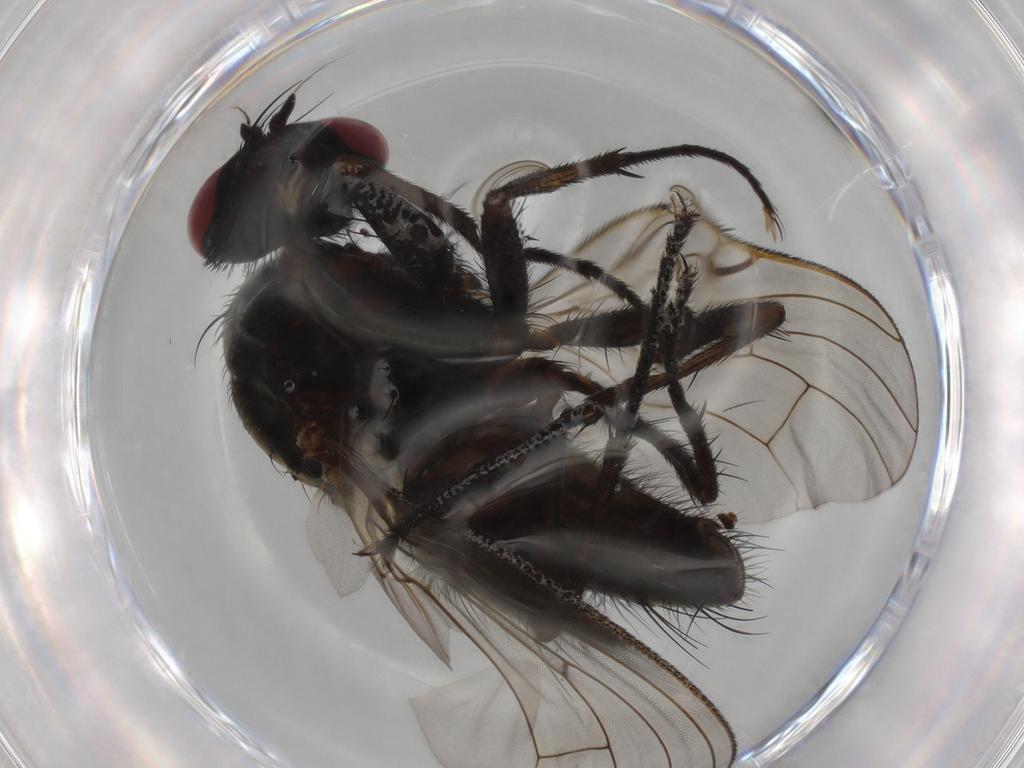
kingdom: Animalia
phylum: Arthropoda
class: Insecta
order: Diptera
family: Muscidae
